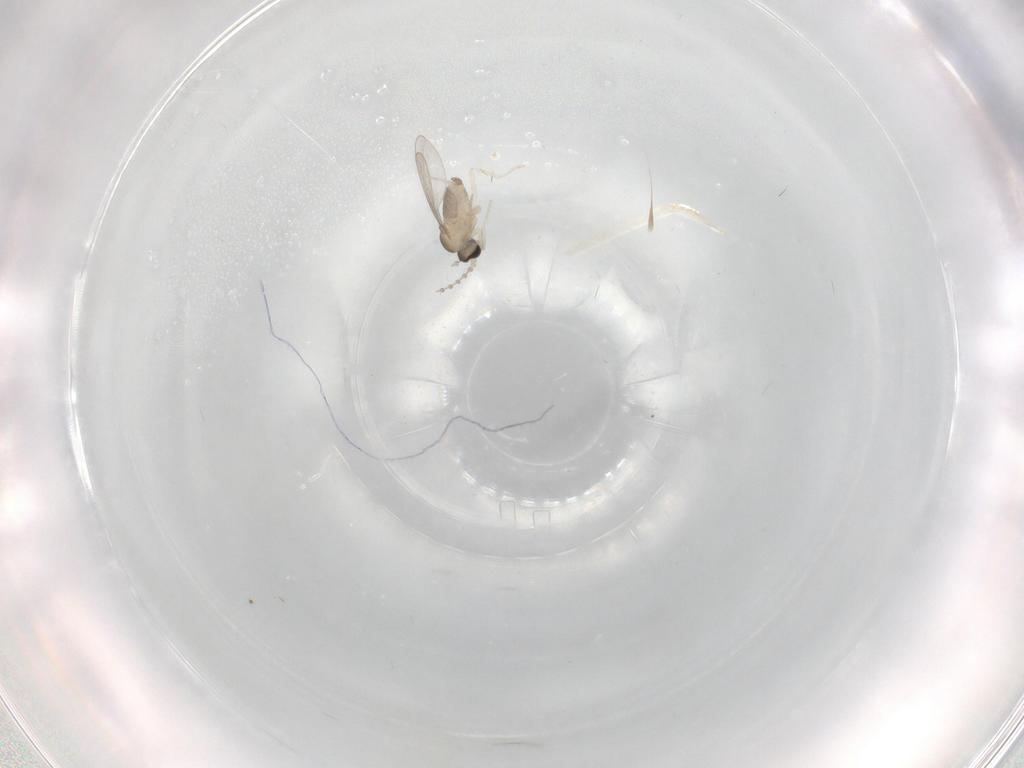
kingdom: Animalia
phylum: Arthropoda
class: Insecta
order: Diptera
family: Cecidomyiidae
